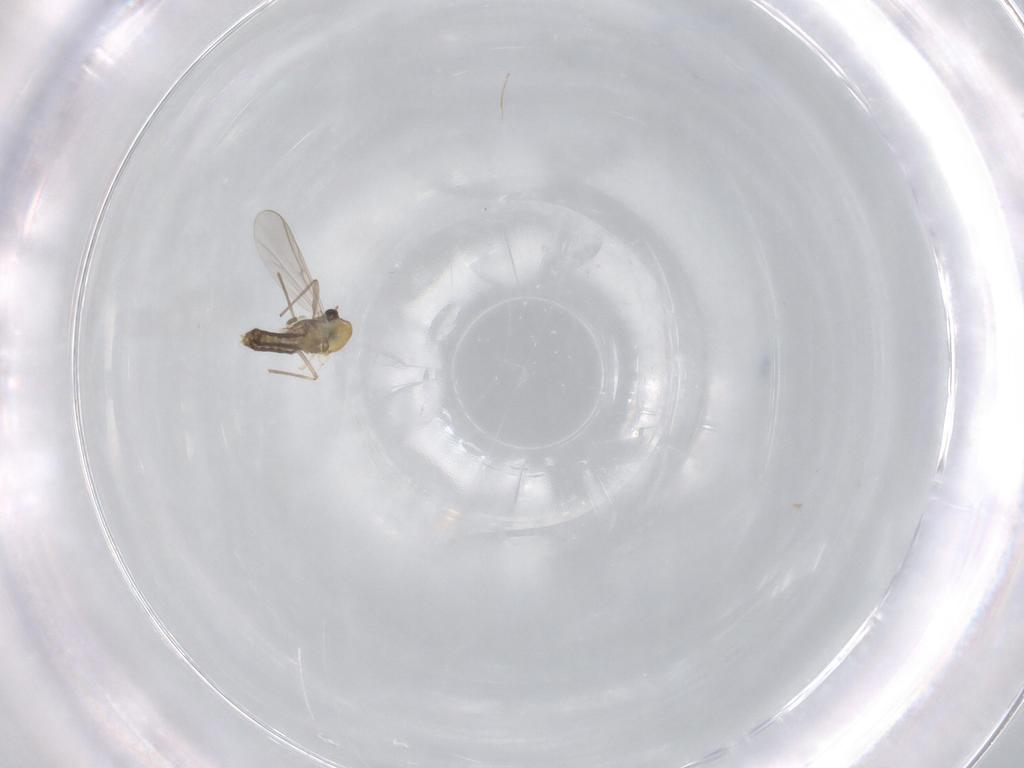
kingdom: Animalia
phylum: Arthropoda
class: Insecta
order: Diptera
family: Chironomidae
